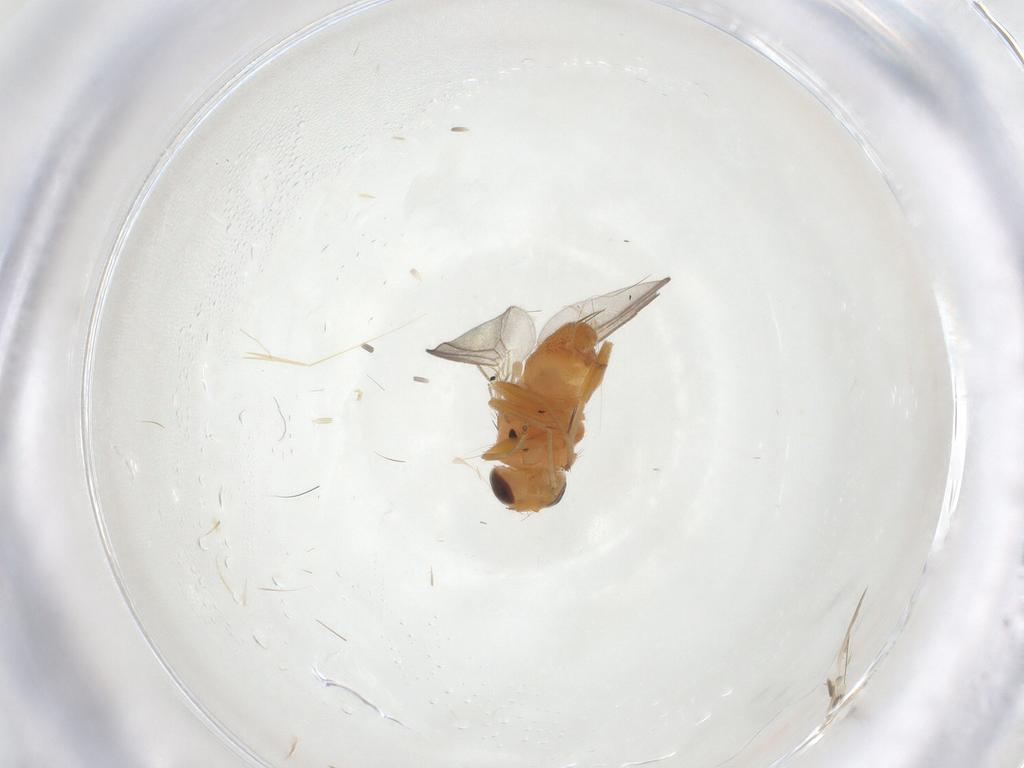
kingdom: Animalia
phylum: Arthropoda
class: Insecta
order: Diptera
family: Chloropidae
